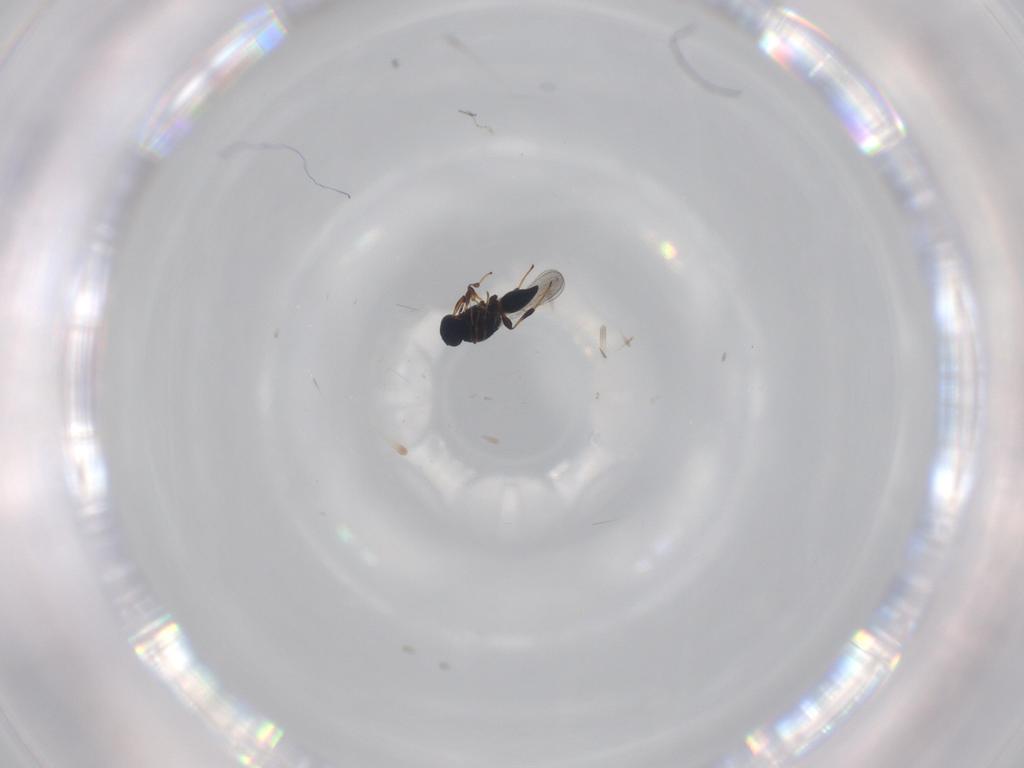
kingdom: Animalia
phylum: Arthropoda
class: Insecta
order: Hymenoptera
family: Platygastridae
